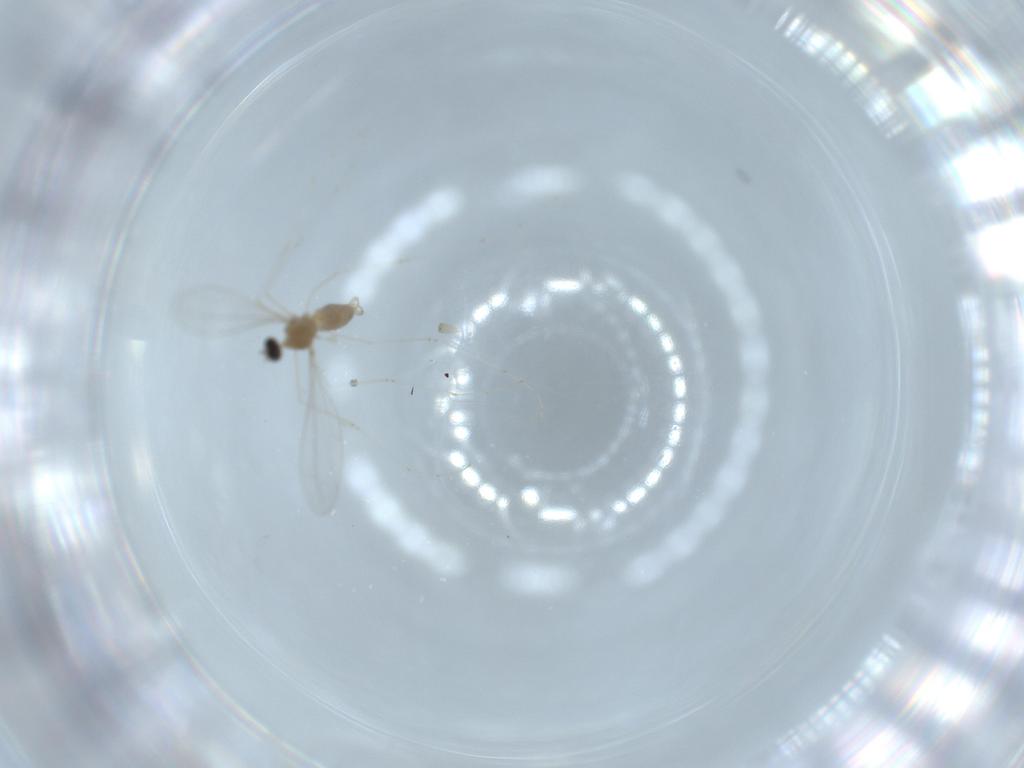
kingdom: Animalia
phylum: Arthropoda
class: Insecta
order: Diptera
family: Cecidomyiidae
